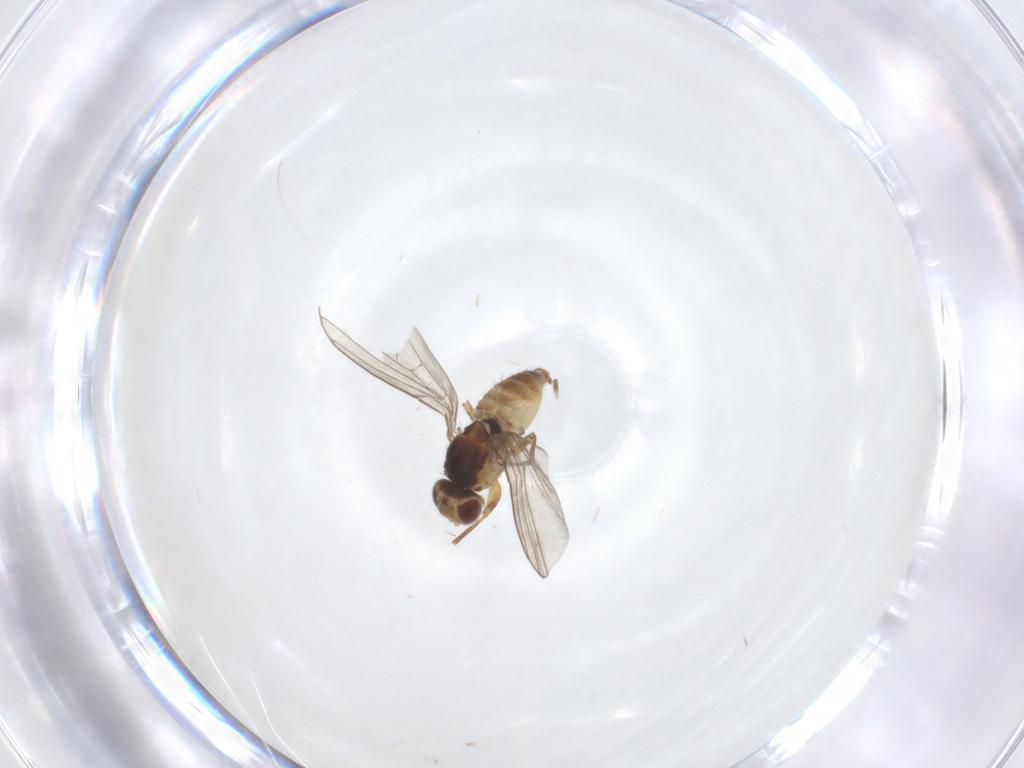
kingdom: Animalia
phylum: Arthropoda
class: Insecta
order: Diptera
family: Agromyzidae
